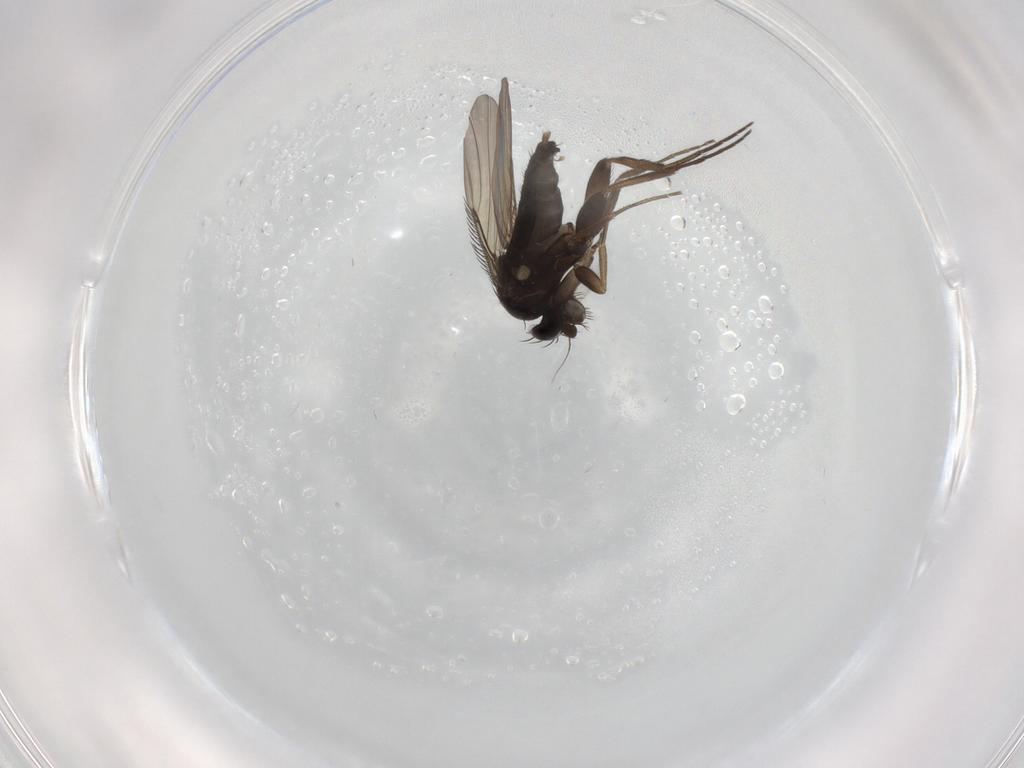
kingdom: Animalia
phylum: Arthropoda
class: Insecta
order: Diptera
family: Phoridae
